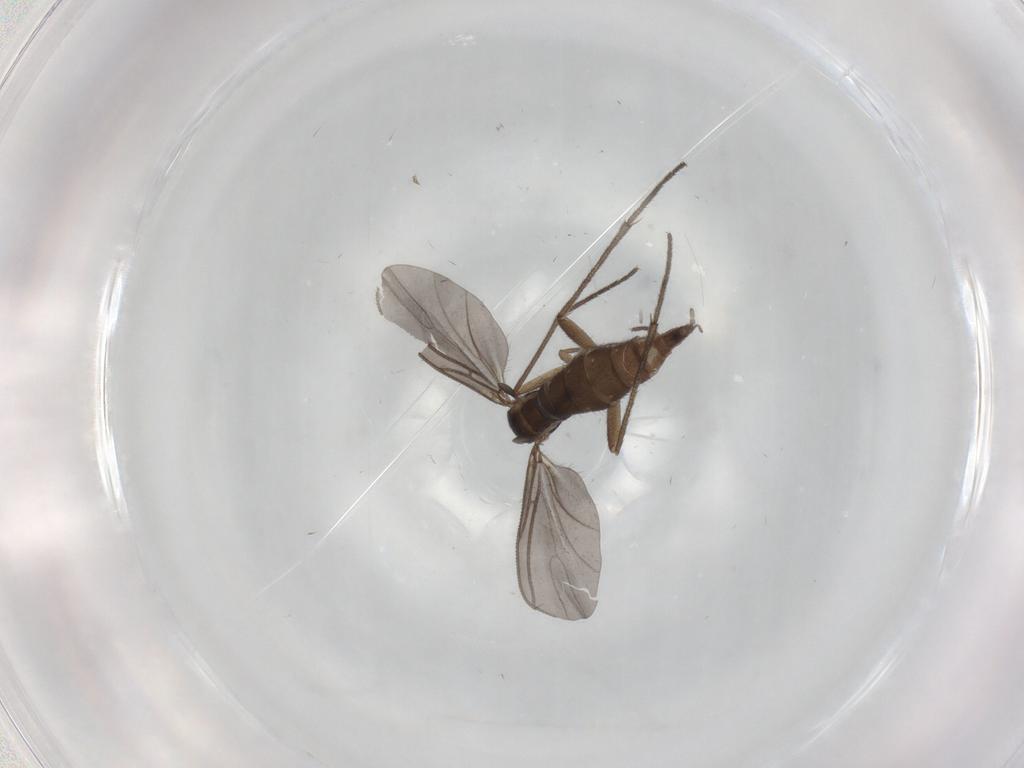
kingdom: Animalia
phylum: Arthropoda
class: Insecta
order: Diptera
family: Sciaridae
